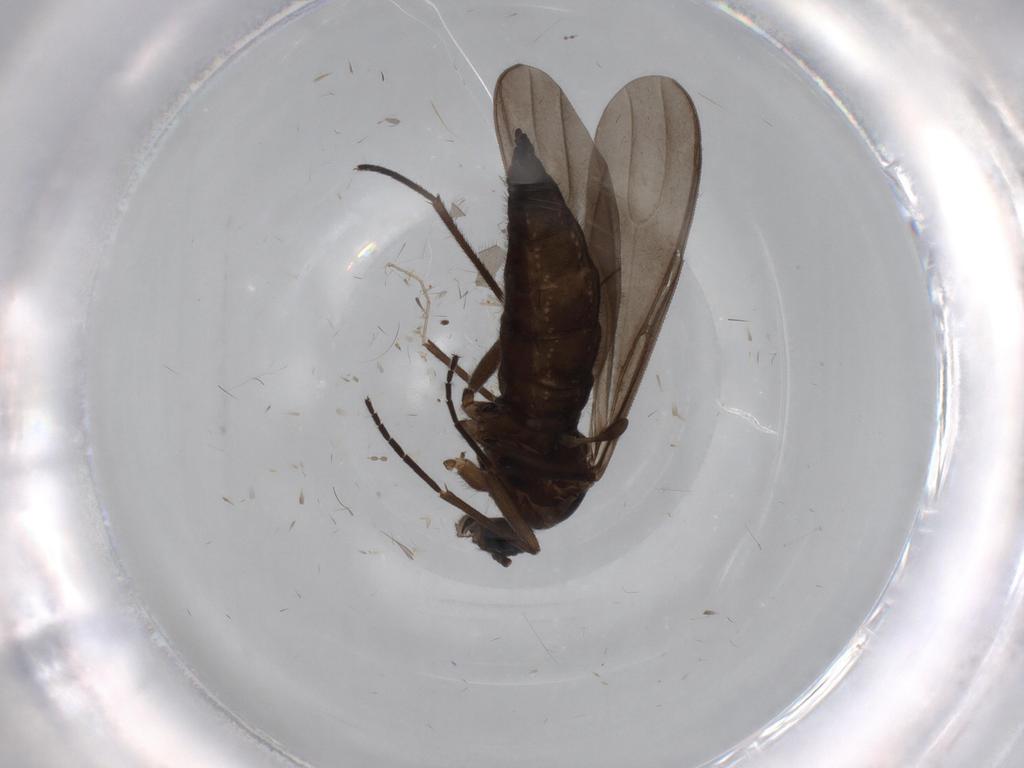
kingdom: Animalia
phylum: Arthropoda
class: Insecta
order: Diptera
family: Sciaridae
